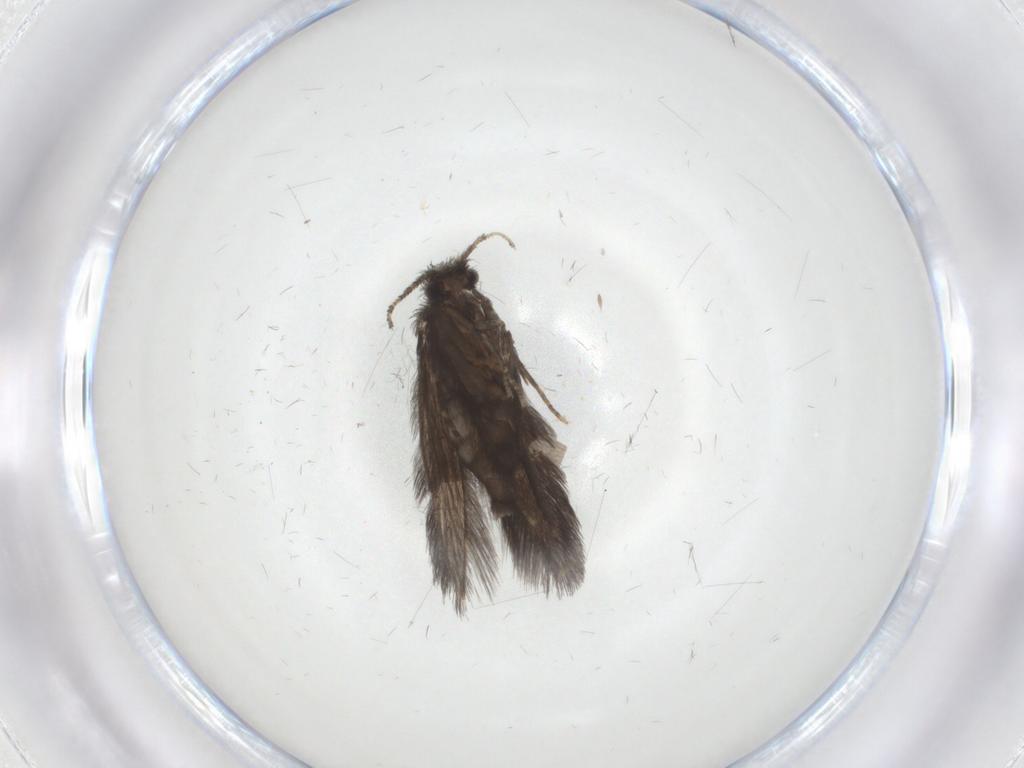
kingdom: Animalia
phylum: Arthropoda
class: Insecta
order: Trichoptera
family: Hydroptilidae
